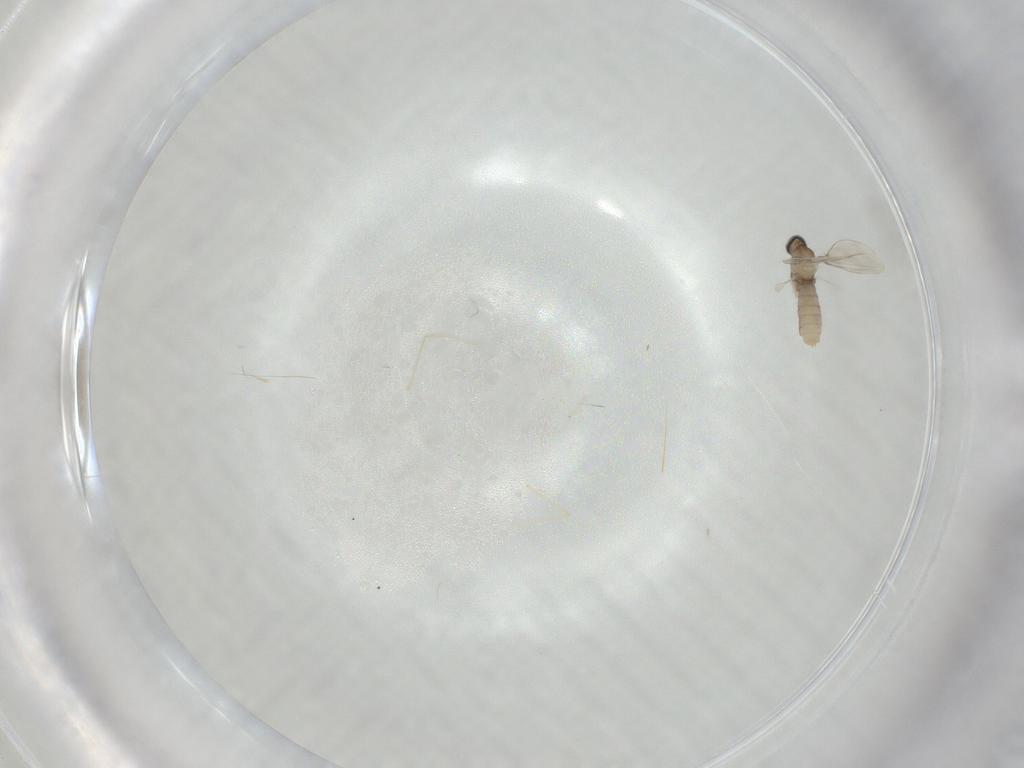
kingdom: Animalia
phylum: Arthropoda
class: Insecta
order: Diptera
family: Cecidomyiidae
